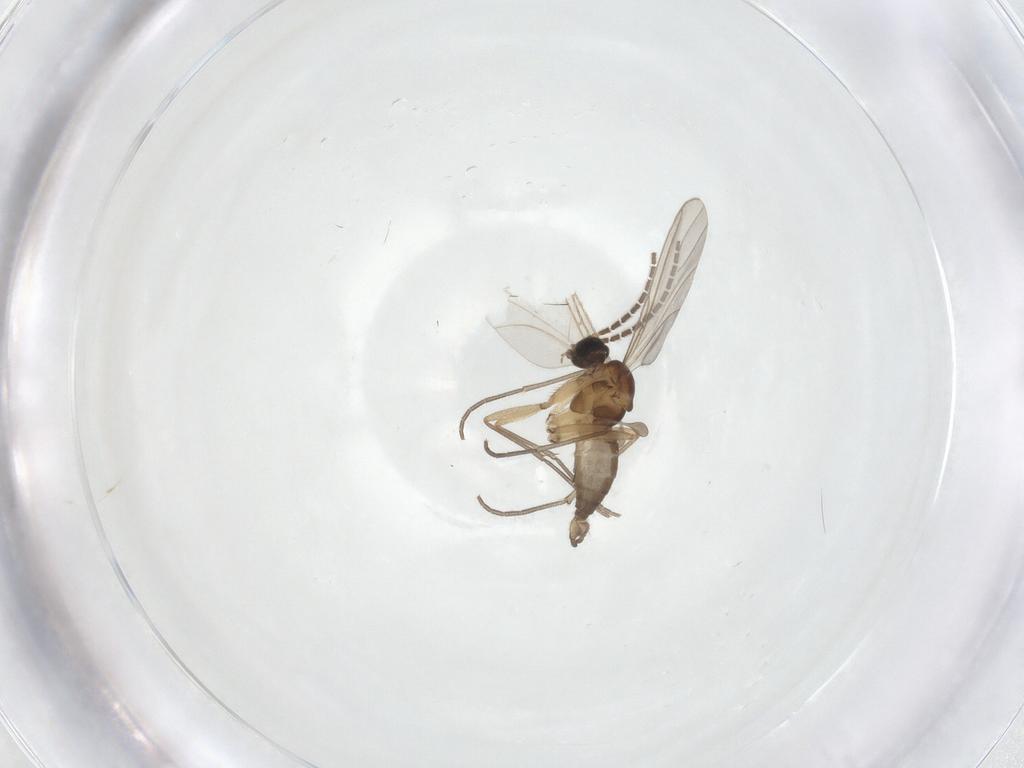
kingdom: Animalia
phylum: Arthropoda
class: Insecta
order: Diptera
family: Sciaridae
